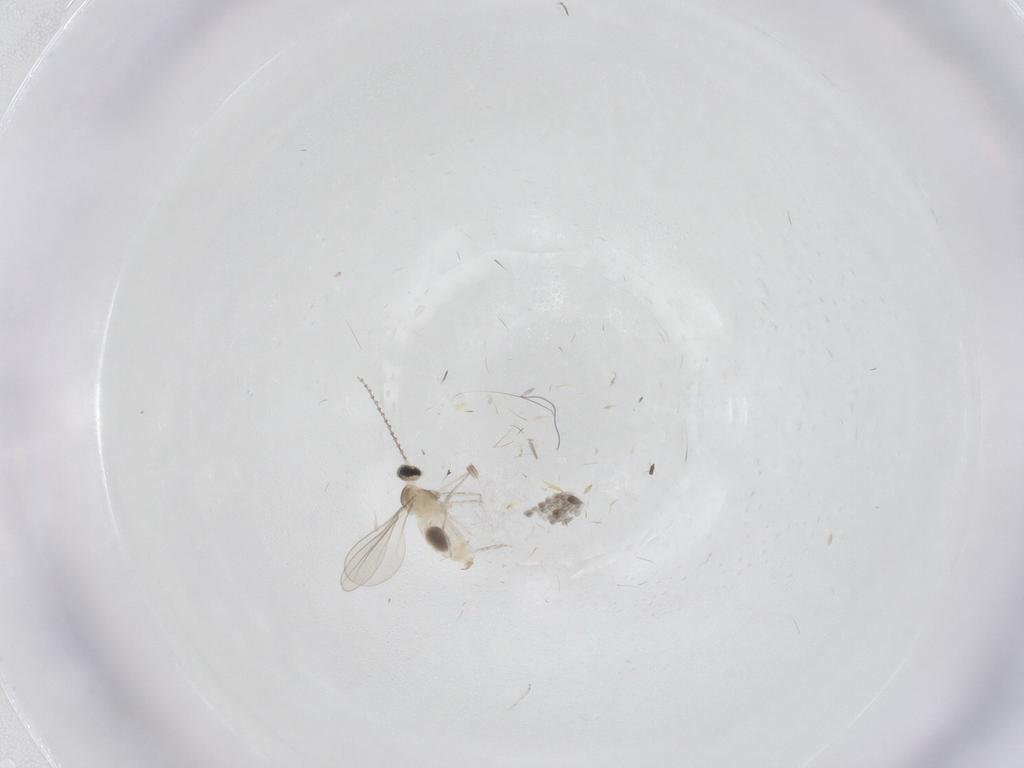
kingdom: Animalia
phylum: Arthropoda
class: Insecta
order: Diptera
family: Cecidomyiidae
